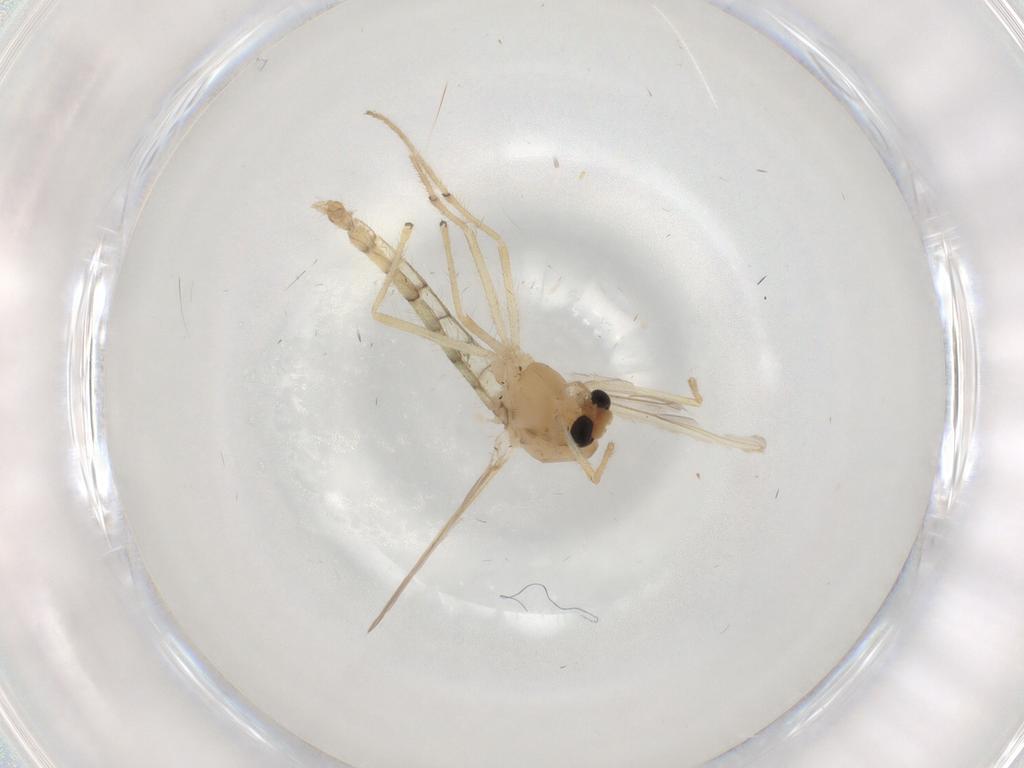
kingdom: Animalia
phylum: Arthropoda
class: Insecta
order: Diptera
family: Chironomidae
